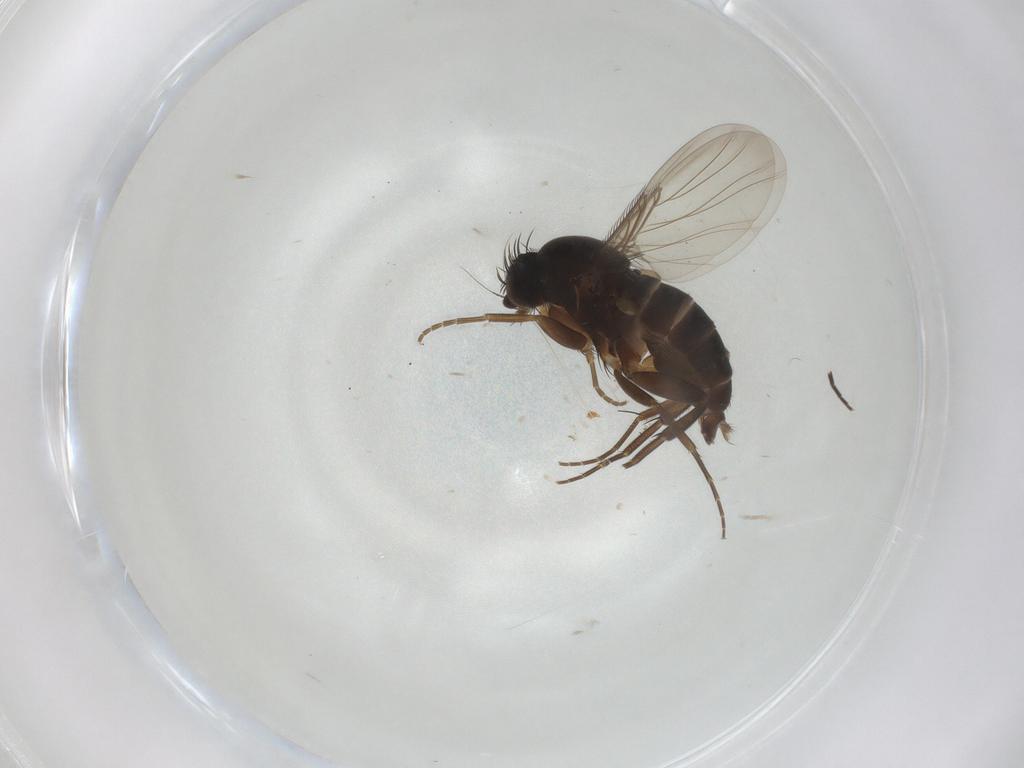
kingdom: Animalia
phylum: Arthropoda
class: Insecta
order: Diptera
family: Phoridae
